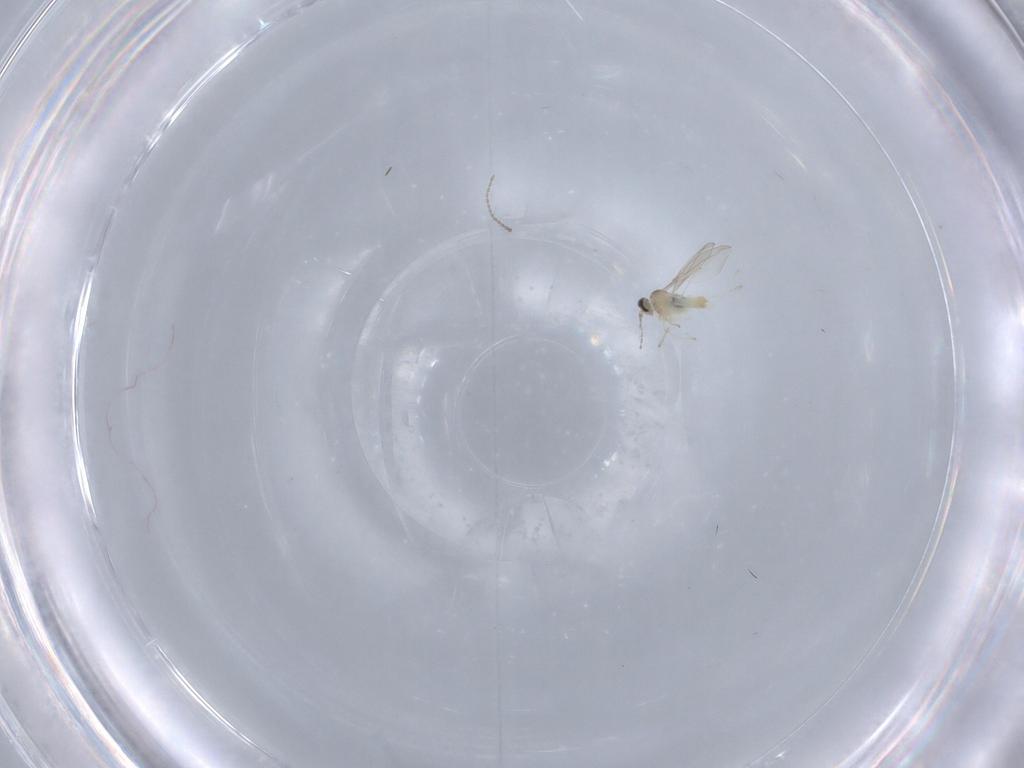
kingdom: Animalia
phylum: Arthropoda
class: Insecta
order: Diptera
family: Cecidomyiidae
